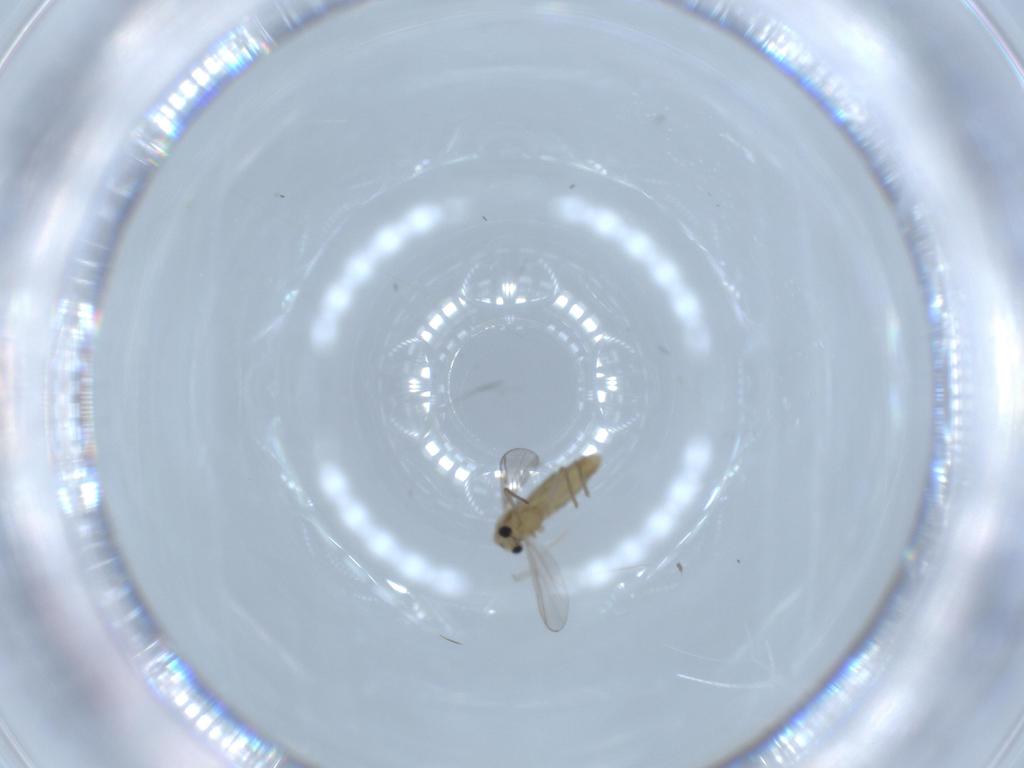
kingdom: Animalia
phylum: Arthropoda
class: Insecta
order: Diptera
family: Chironomidae
